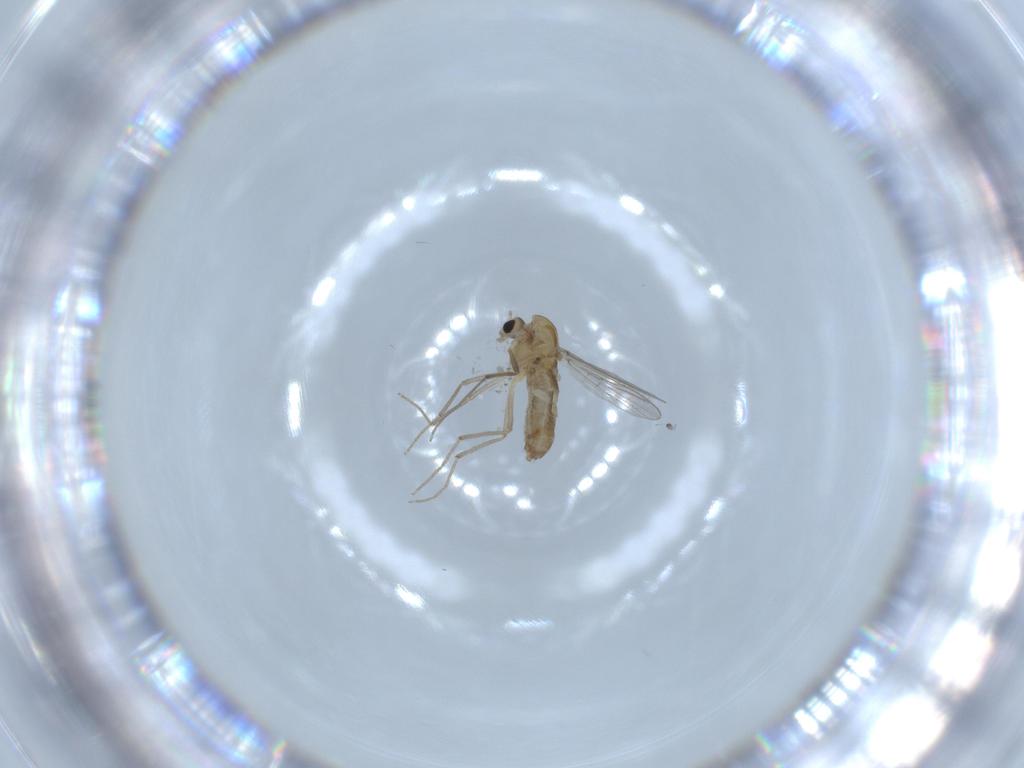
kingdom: Animalia
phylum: Arthropoda
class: Insecta
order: Diptera
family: Chironomidae
